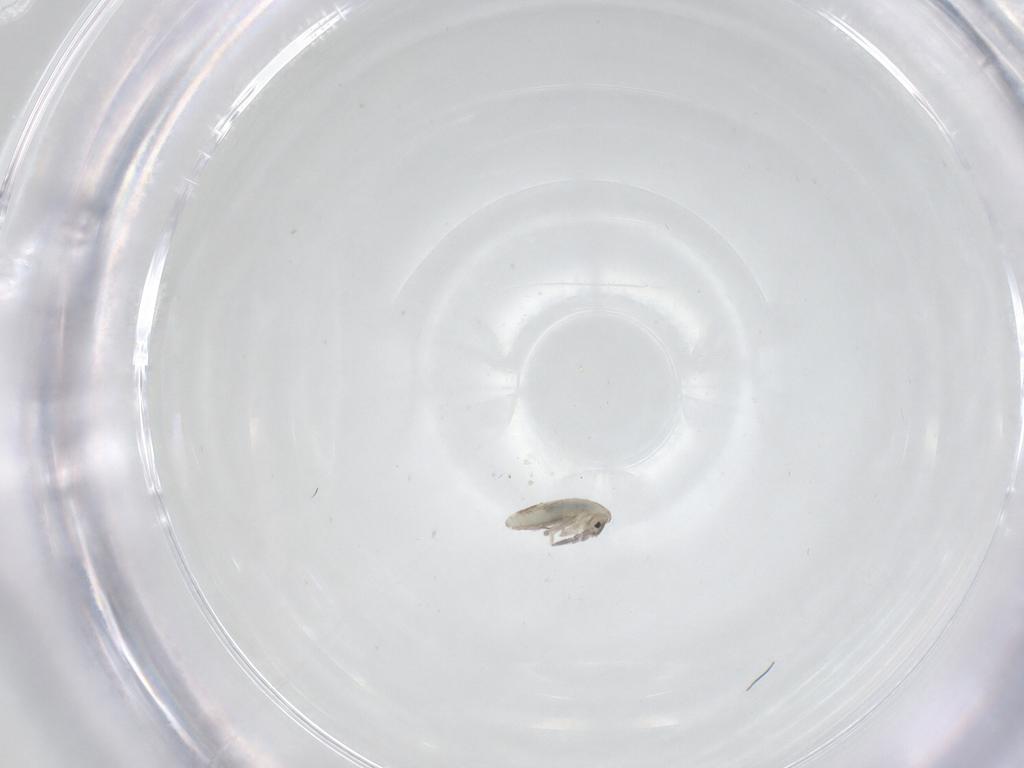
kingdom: Animalia
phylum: Arthropoda
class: Collembola
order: Entomobryomorpha
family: Entomobryidae
